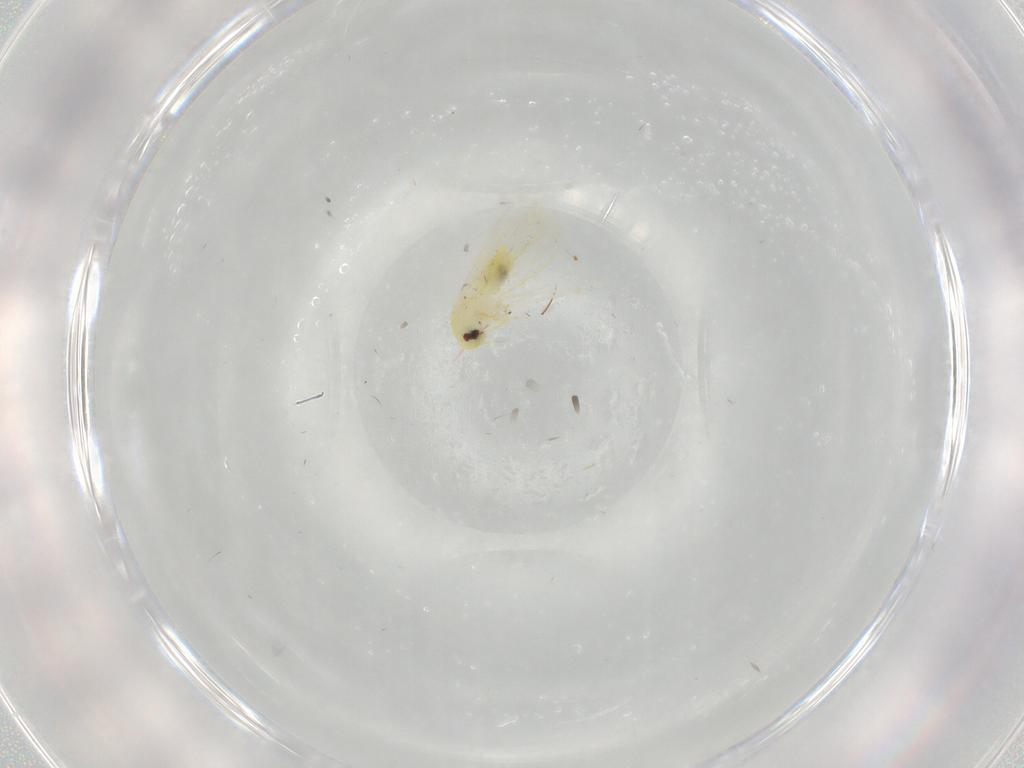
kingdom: Animalia
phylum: Arthropoda
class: Insecta
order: Hemiptera
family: Aleyrodidae
